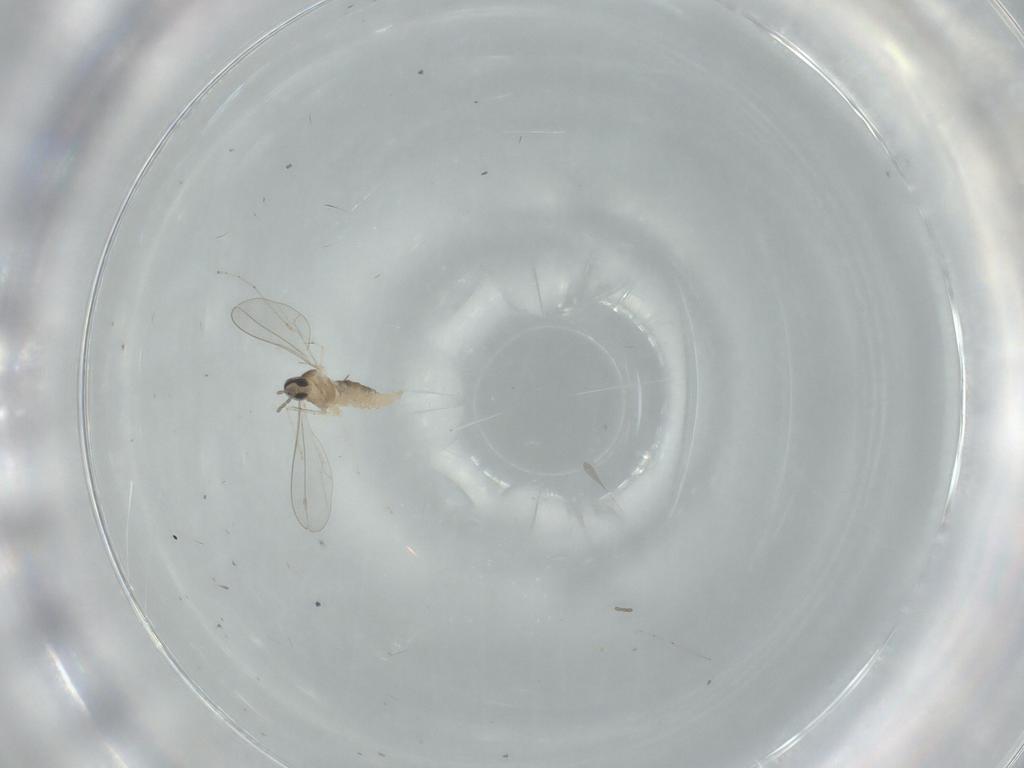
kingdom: Animalia
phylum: Arthropoda
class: Insecta
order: Diptera
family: Cecidomyiidae
